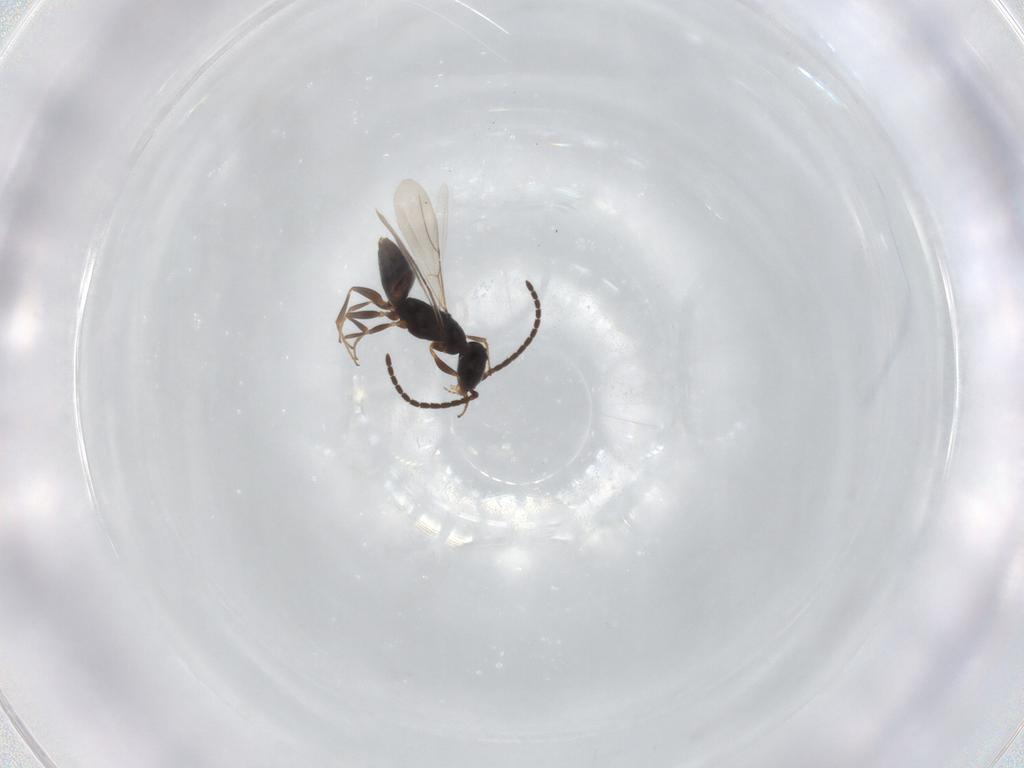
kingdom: Animalia
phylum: Arthropoda
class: Insecta
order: Hymenoptera
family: Bethylidae
